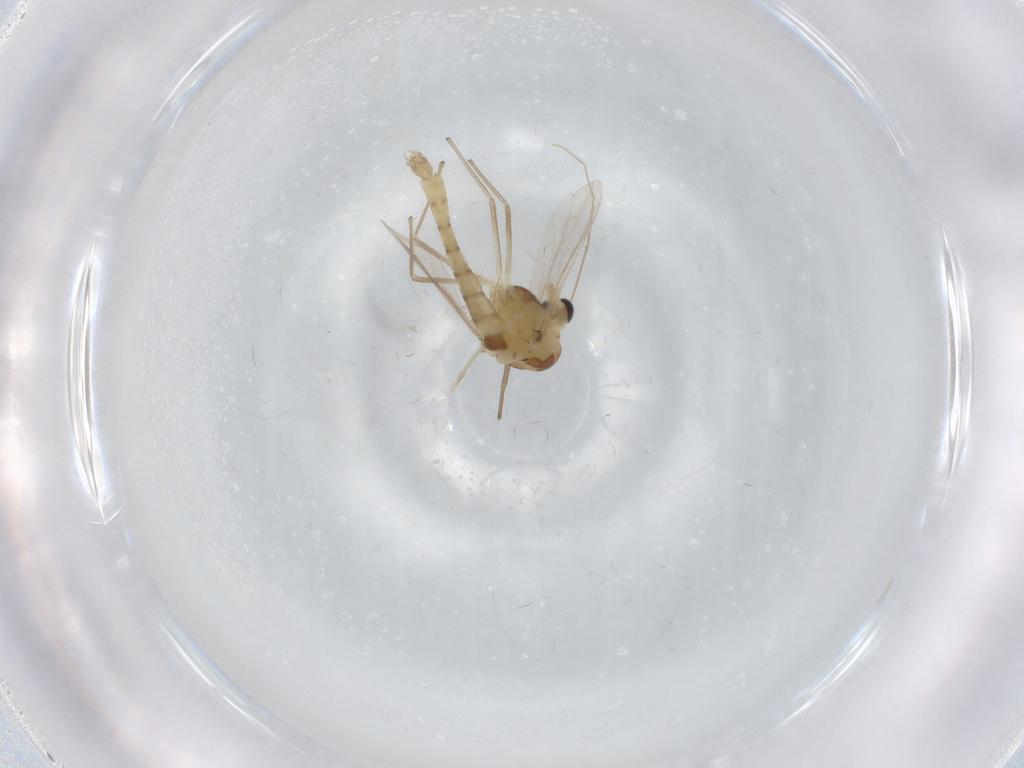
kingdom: Animalia
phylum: Arthropoda
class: Insecta
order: Diptera
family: Chironomidae
